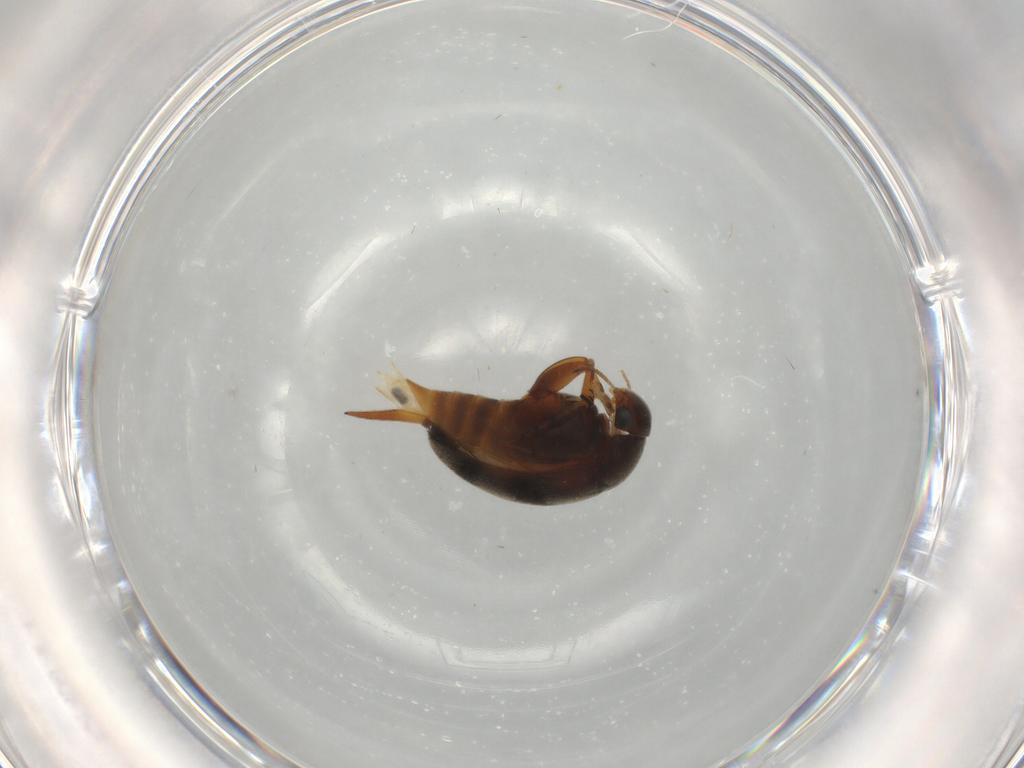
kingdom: Animalia
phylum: Arthropoda
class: Insecta
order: Coleoptera
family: Mordellidae
